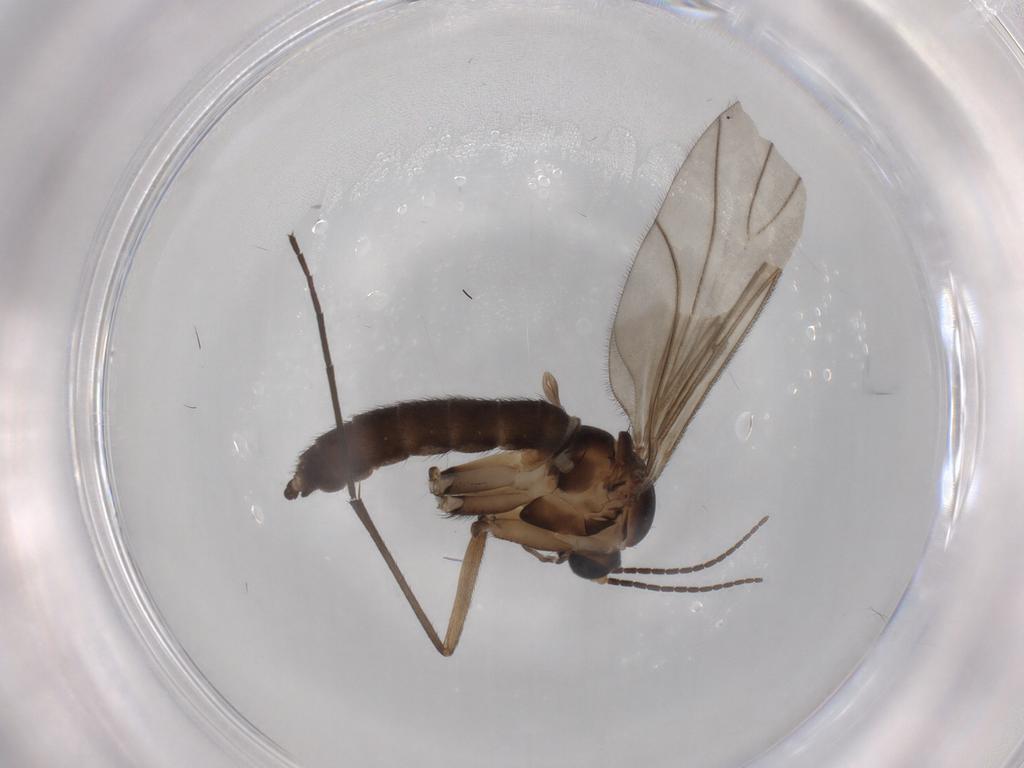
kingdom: Animalia
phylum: Arthropoda
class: Insecta
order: Diptera
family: Sciaridae
